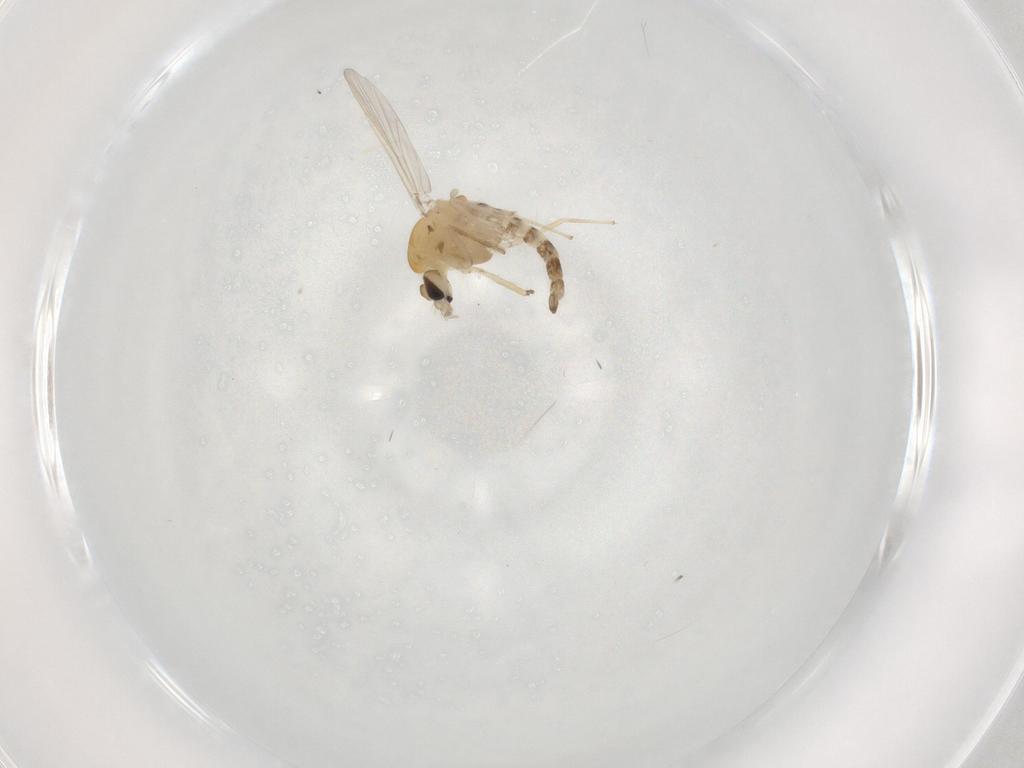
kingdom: Animalia
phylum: Arthropoda
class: Insecta
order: Diptera
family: Chironomidae
